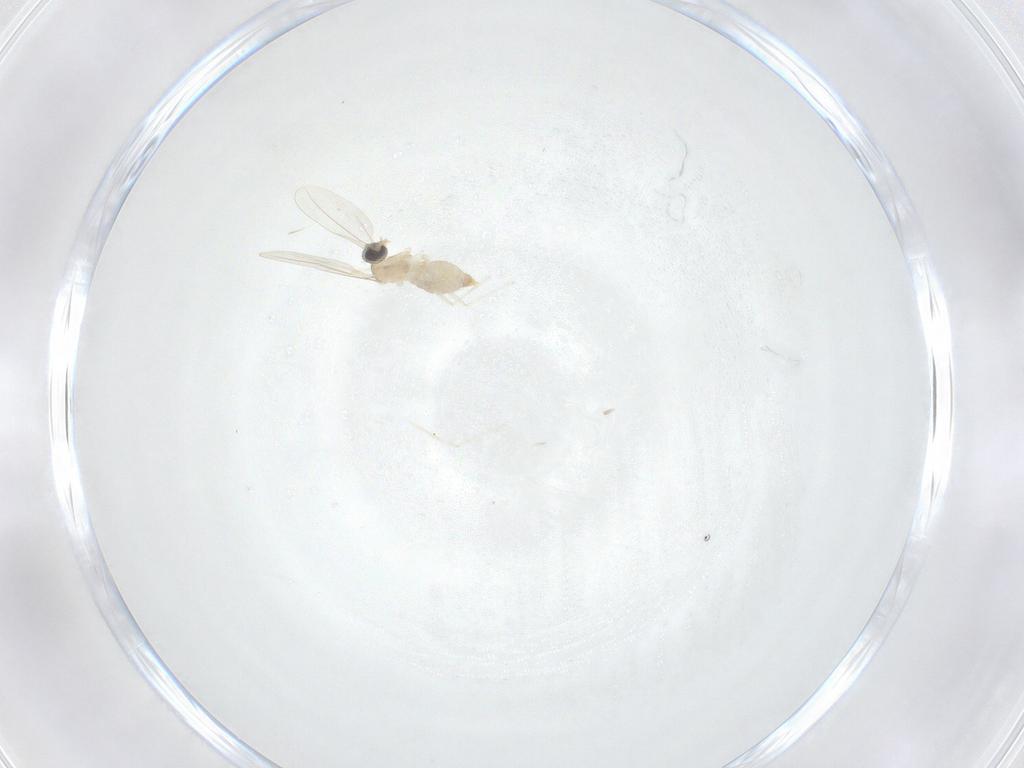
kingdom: Animalia
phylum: Arthropoda
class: Insecta
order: Diptera
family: Cecidomyiidae
